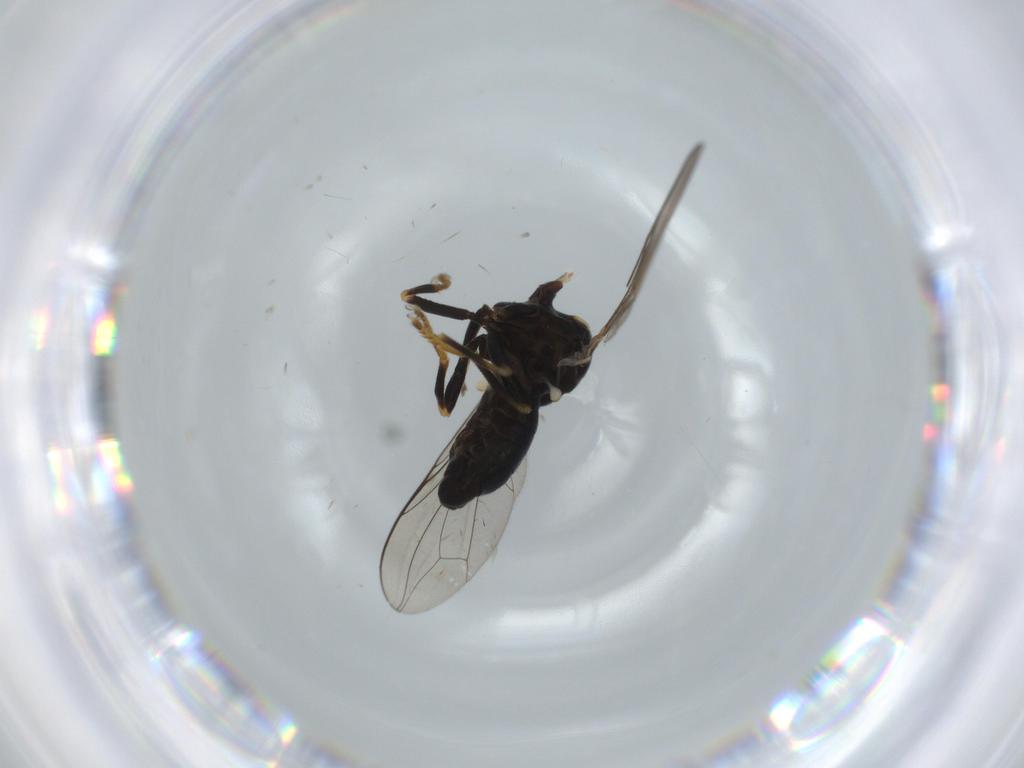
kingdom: Animalia
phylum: Arthropoda
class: Insecta
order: Diptera
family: Pipunculidae
